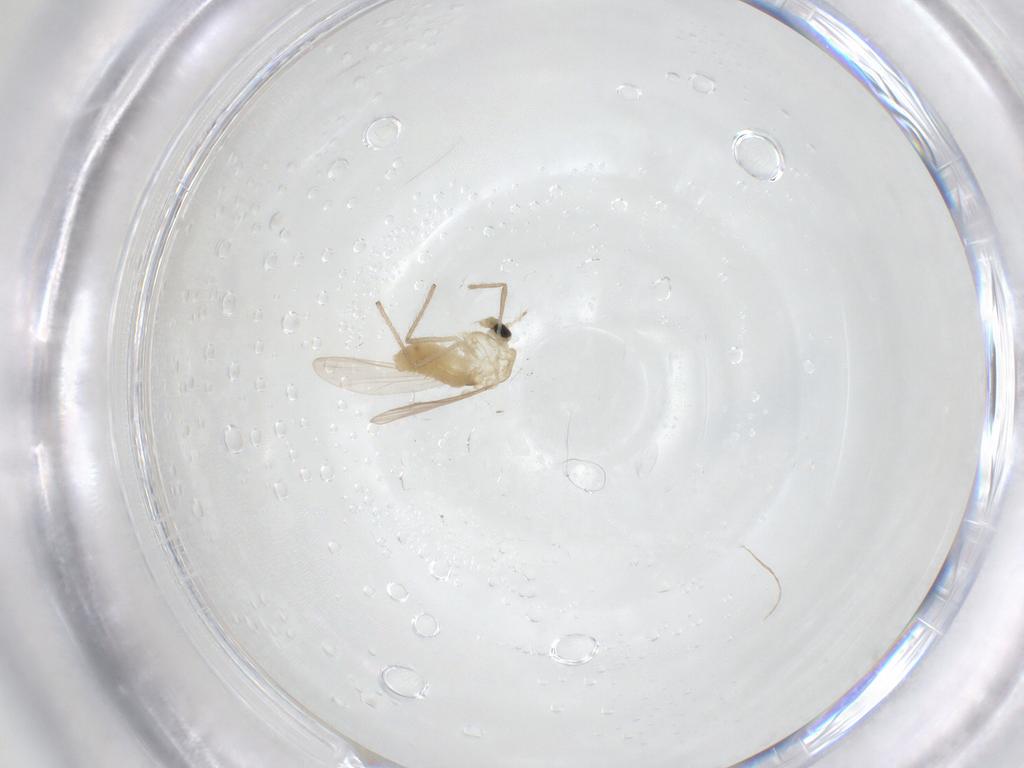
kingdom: Animalia
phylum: Arthropoda
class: Insecta
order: Diptera
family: Chironomidae
